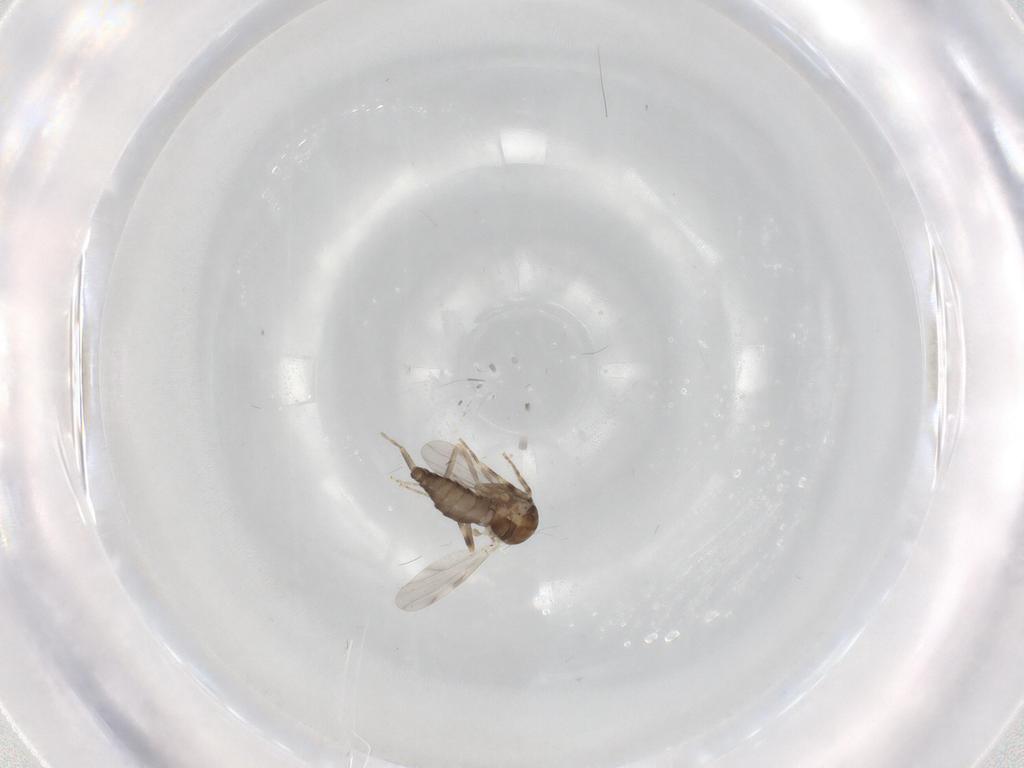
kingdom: Animalia
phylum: Arthropoda
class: Insecta
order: Diptera
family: Ceratopogonidae
